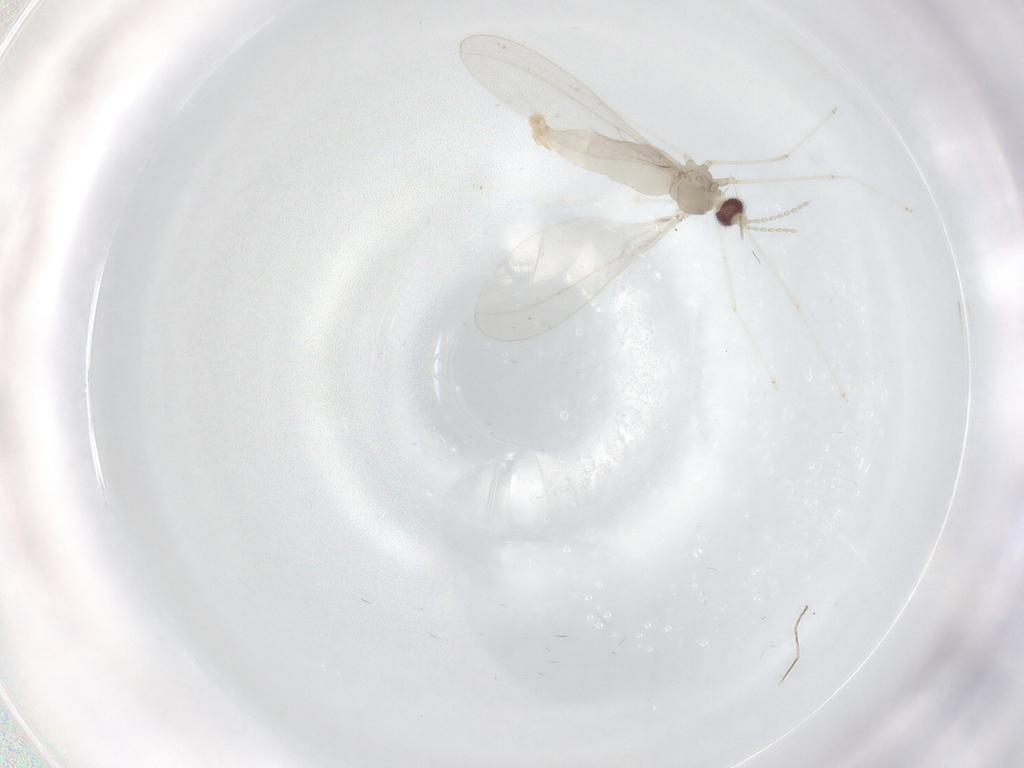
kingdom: Animalia
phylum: Arthropoda
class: Insecta
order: Diptera
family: Cecidomyiidae
